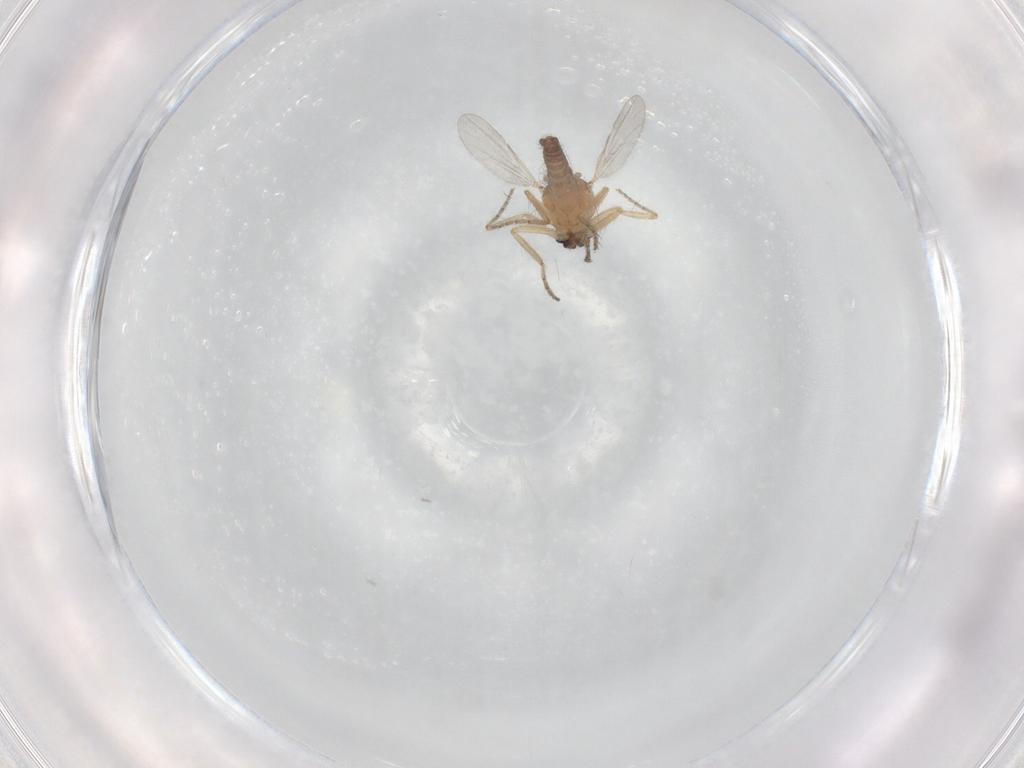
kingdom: Animalia
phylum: Arthropoda
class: Insecta
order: Diptera
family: Ceratopogonidae
